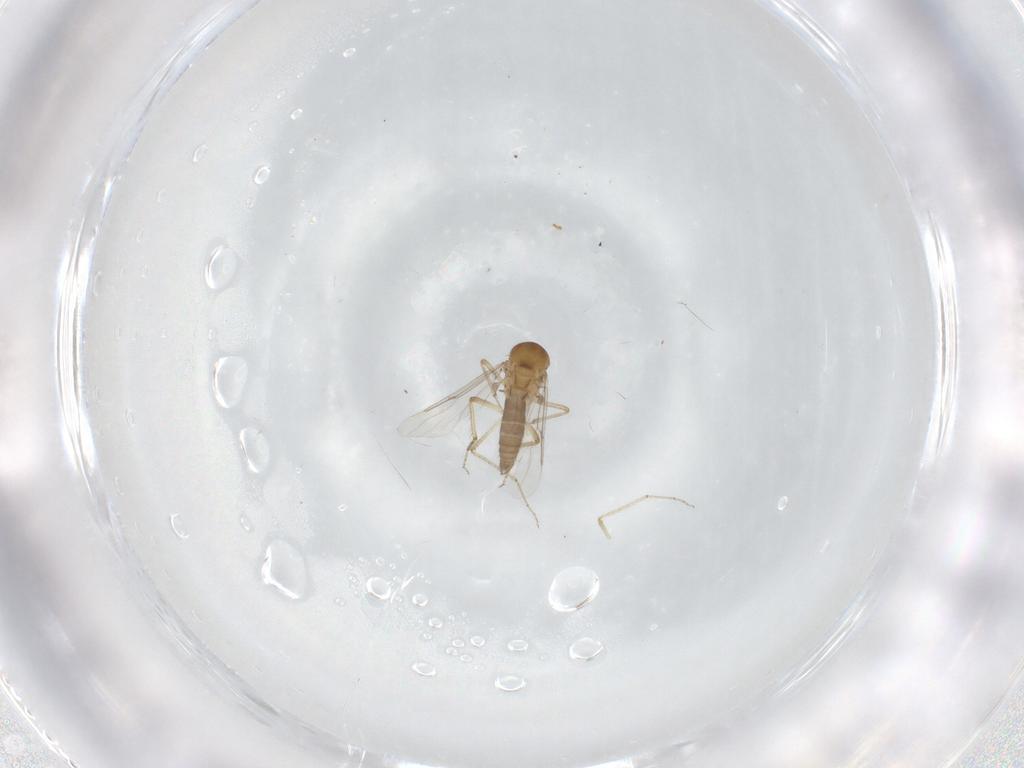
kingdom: Animalia
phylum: Arthropoda
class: Insecta
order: Diptera
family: Ceratopogonidae
